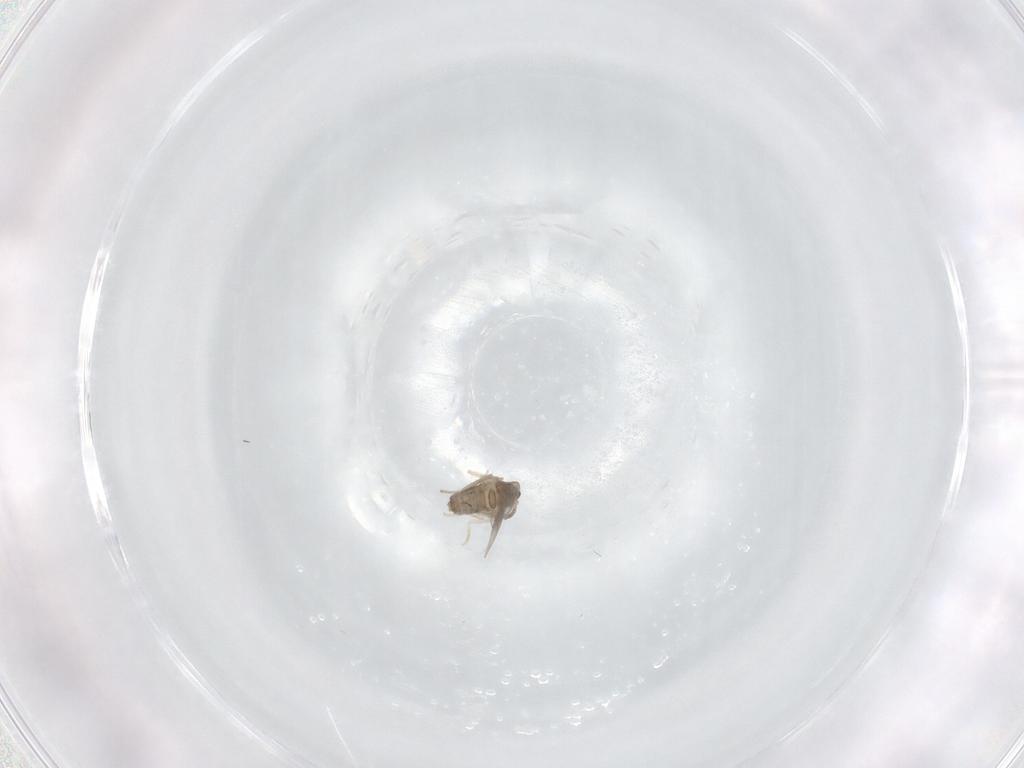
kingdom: Animalia
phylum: Arthropoda
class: Insecta
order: Diptera
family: Cecidomyiidae
